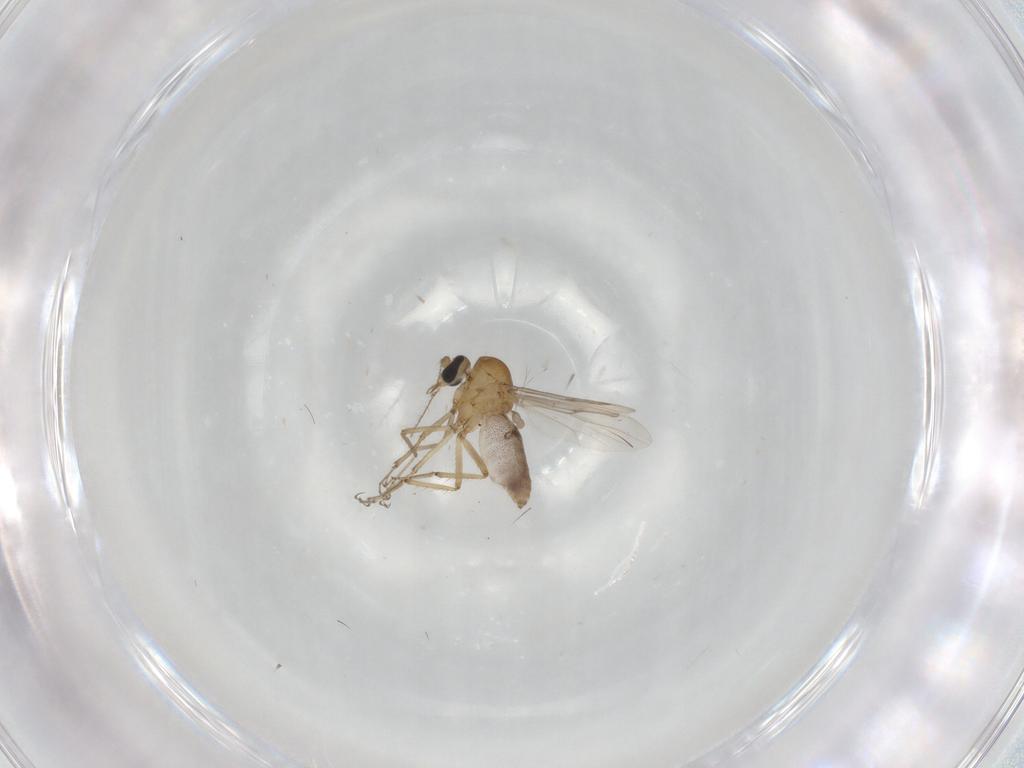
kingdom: Animalia
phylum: Arthropoda
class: Insecta
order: Diptera
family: Ceratopogonidae
